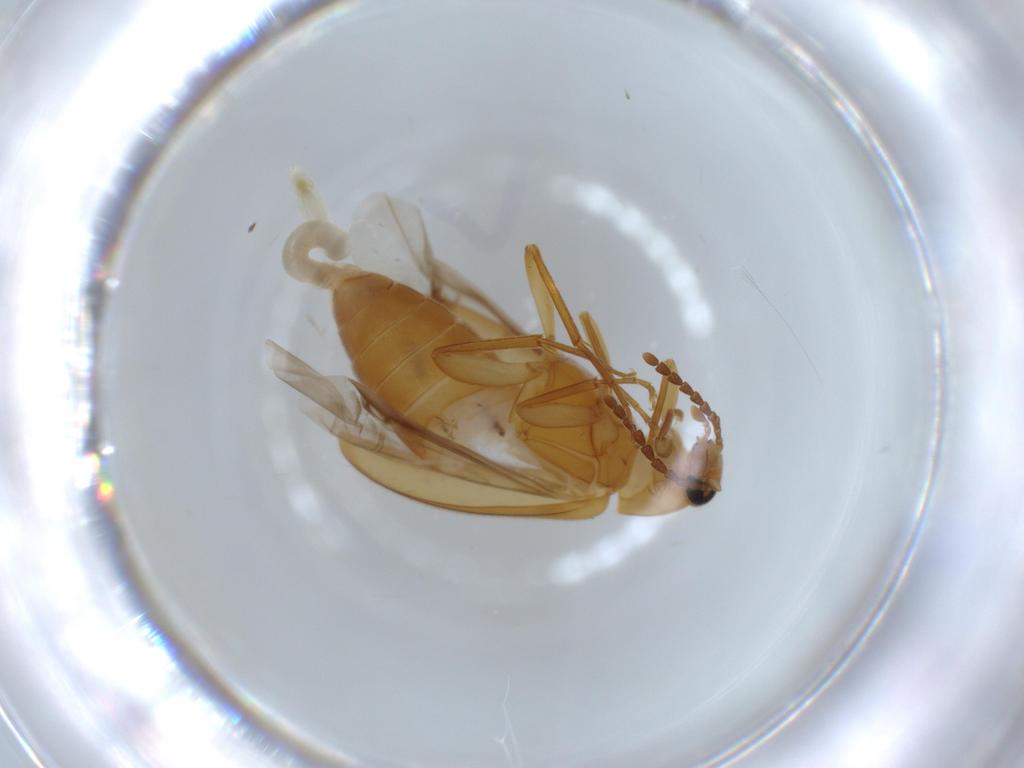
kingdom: Animalia
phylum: Arthropoda
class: Insecta
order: Coleoptera
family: Scraptiidae
